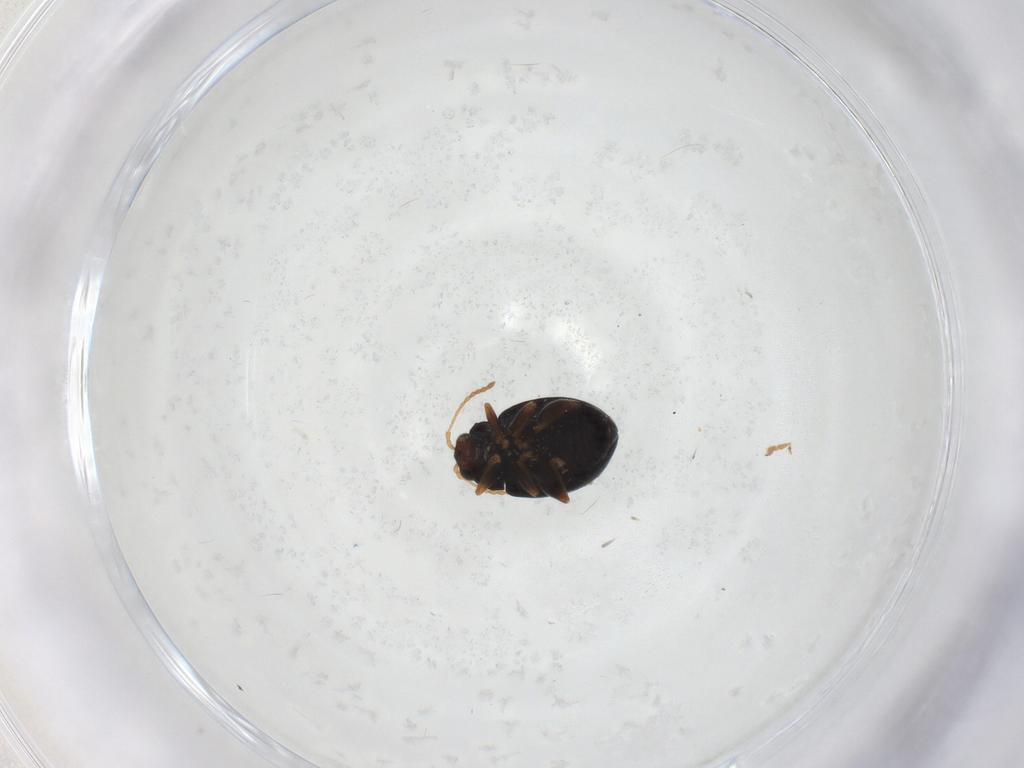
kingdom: Animalia
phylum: Arthropoda
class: Insecta
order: Coleoptera
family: Chrysomelidae
